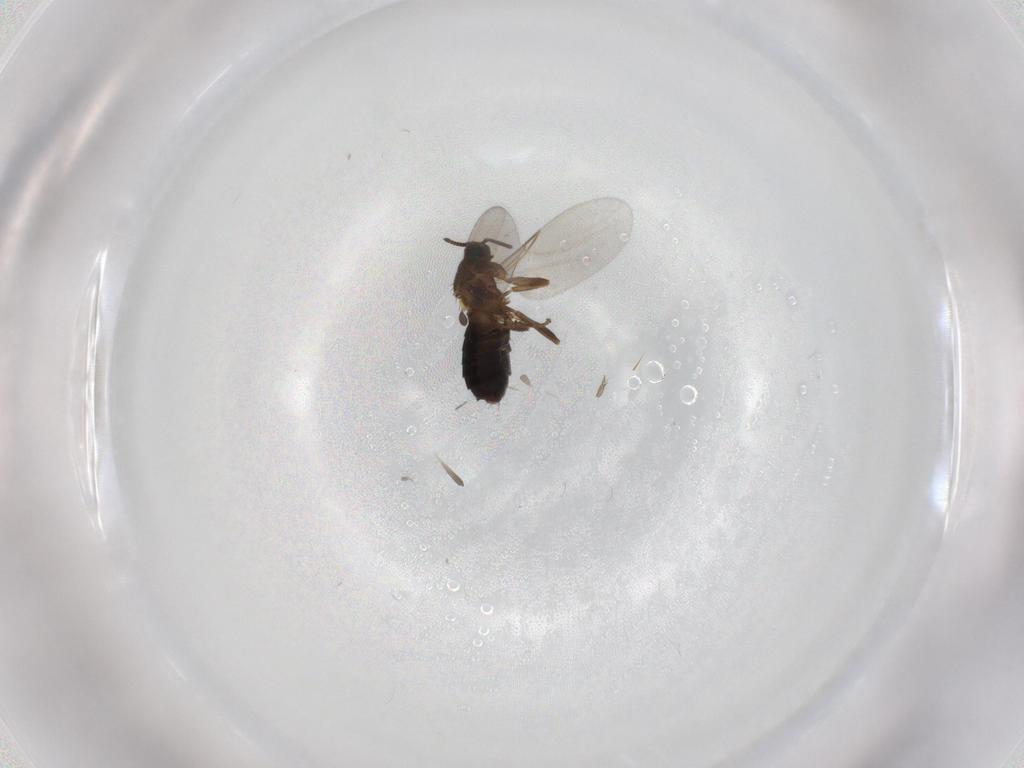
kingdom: Animalia
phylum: Arthropoda
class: Insecta
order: Diptera
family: Scatopsidae
